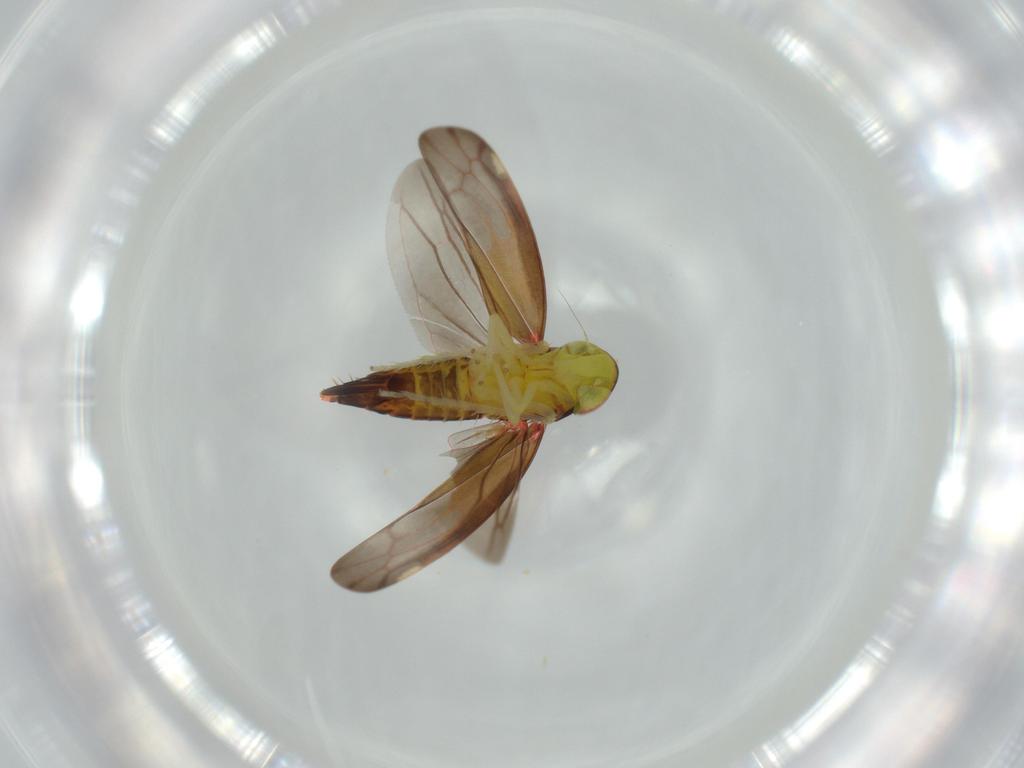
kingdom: Animalia
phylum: Arthropoda
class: Insecta
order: Hemiptera
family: Cicadellidae
